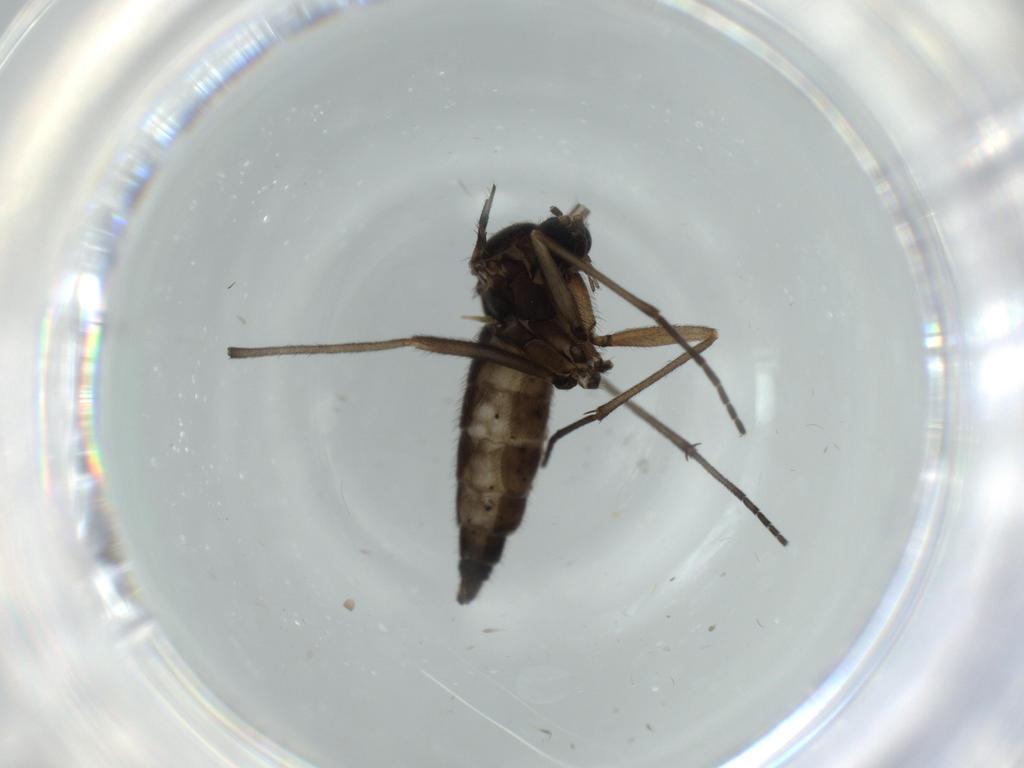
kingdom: Animalia
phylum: Arthropoda
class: Insecta
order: Diptera
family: Sciaridae
